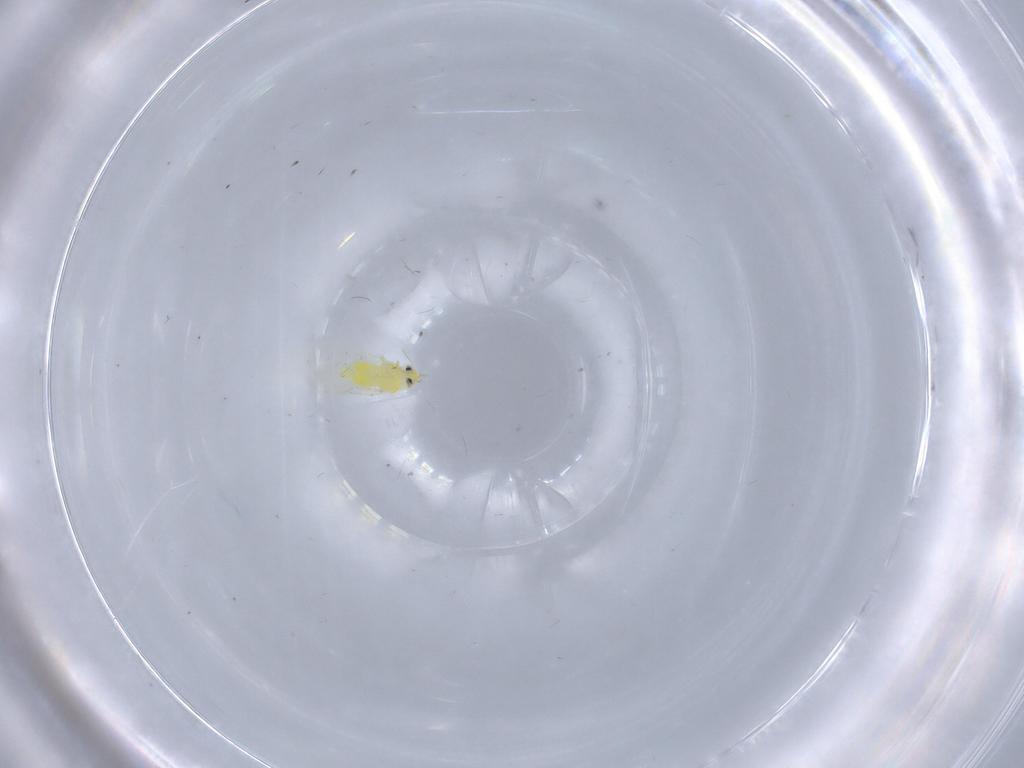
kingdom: Animalia
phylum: Arthropoda
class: Insecta
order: Hemiptera
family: Aleyrodidae
